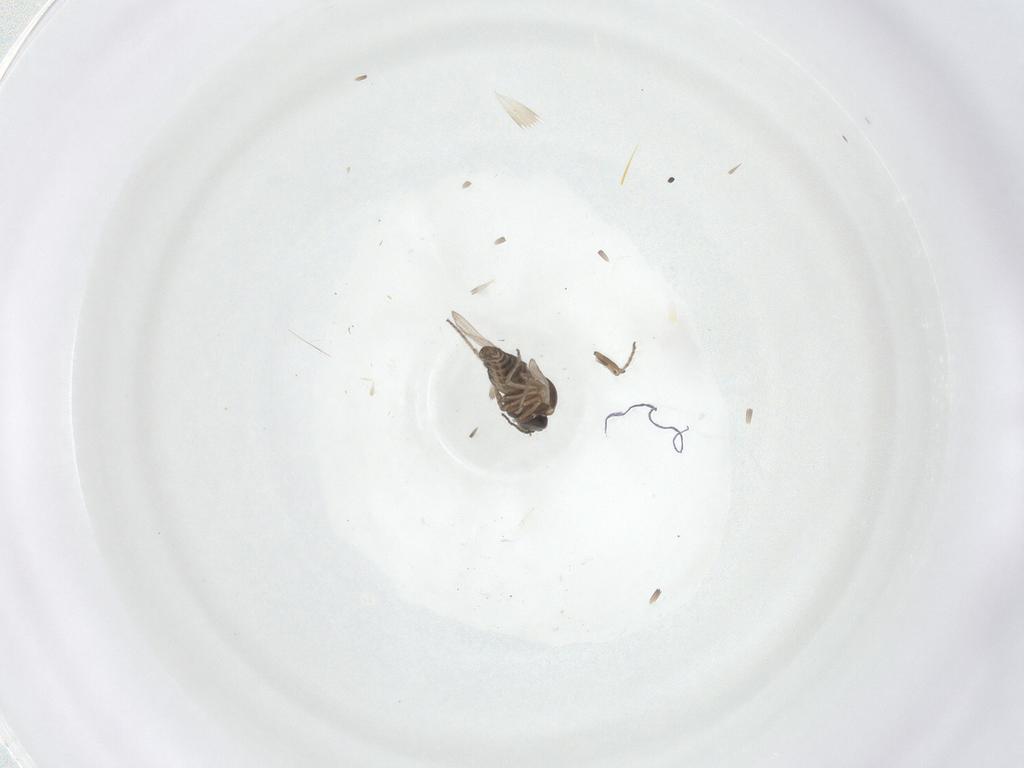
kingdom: Animalia
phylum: Arthropoda
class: Insecta
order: Diptera
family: Ceratopogonidae
